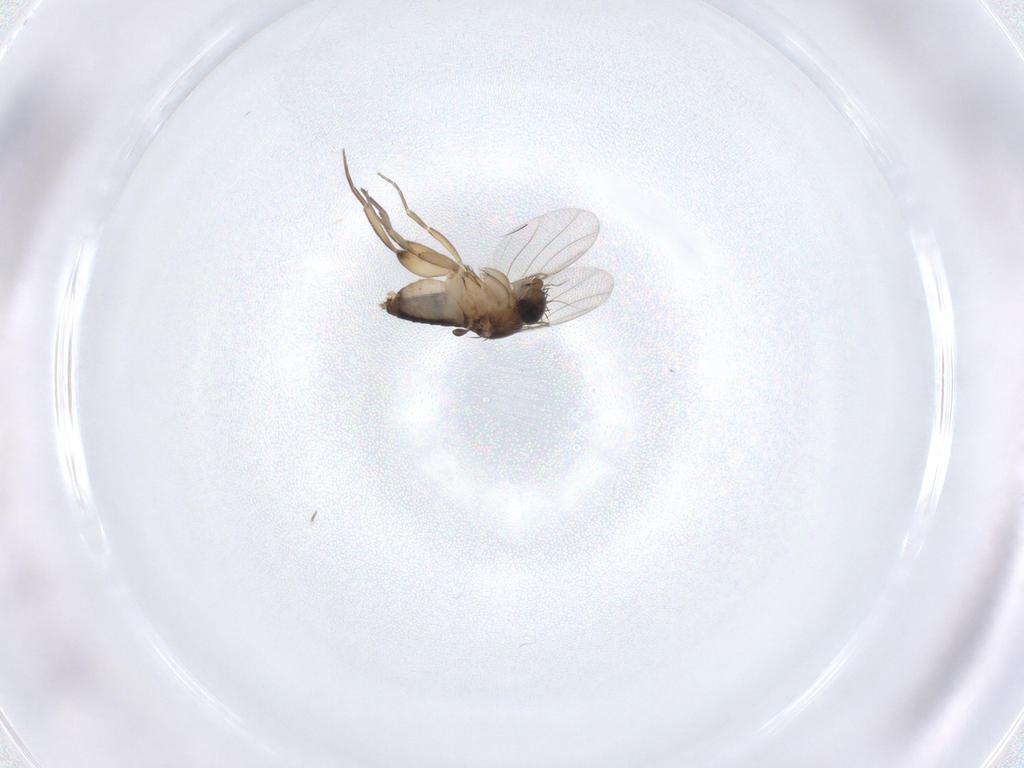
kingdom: Animalia
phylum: Arthropoda
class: Insecta
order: Diptera
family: Phoridae
